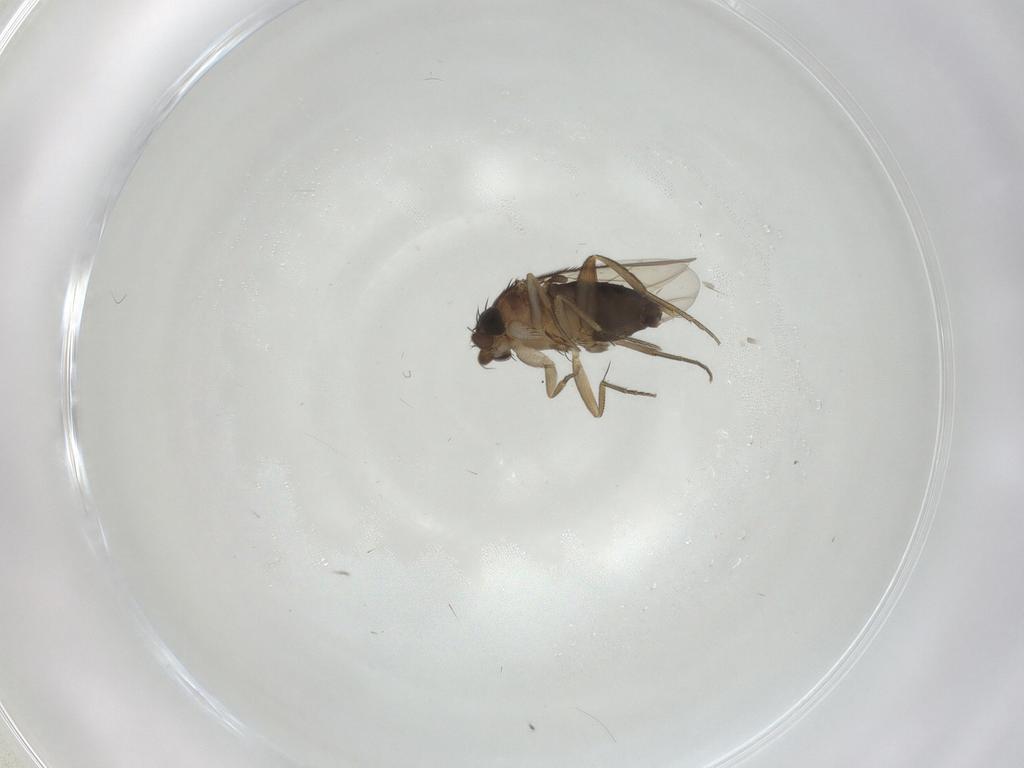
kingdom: Animalia
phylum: Arthropoda
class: Insecta
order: Diptera
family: Phoridae
